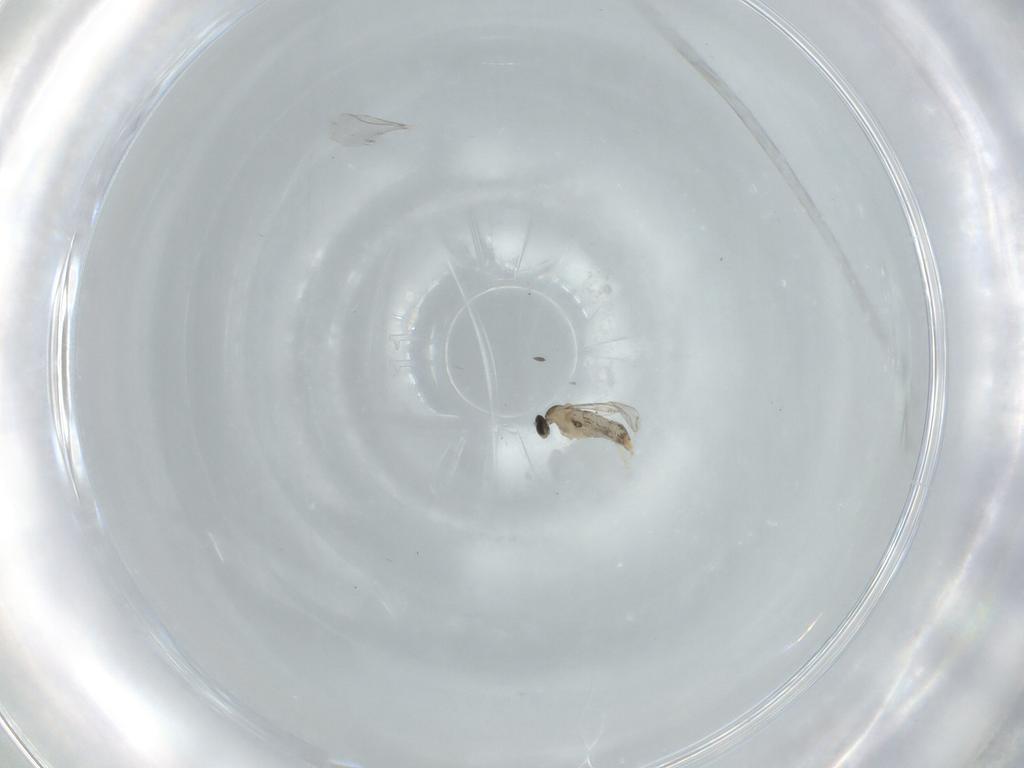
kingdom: Animalia
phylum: Arthropoda
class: Insecta
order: Diptera
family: Cecidomyiidae
